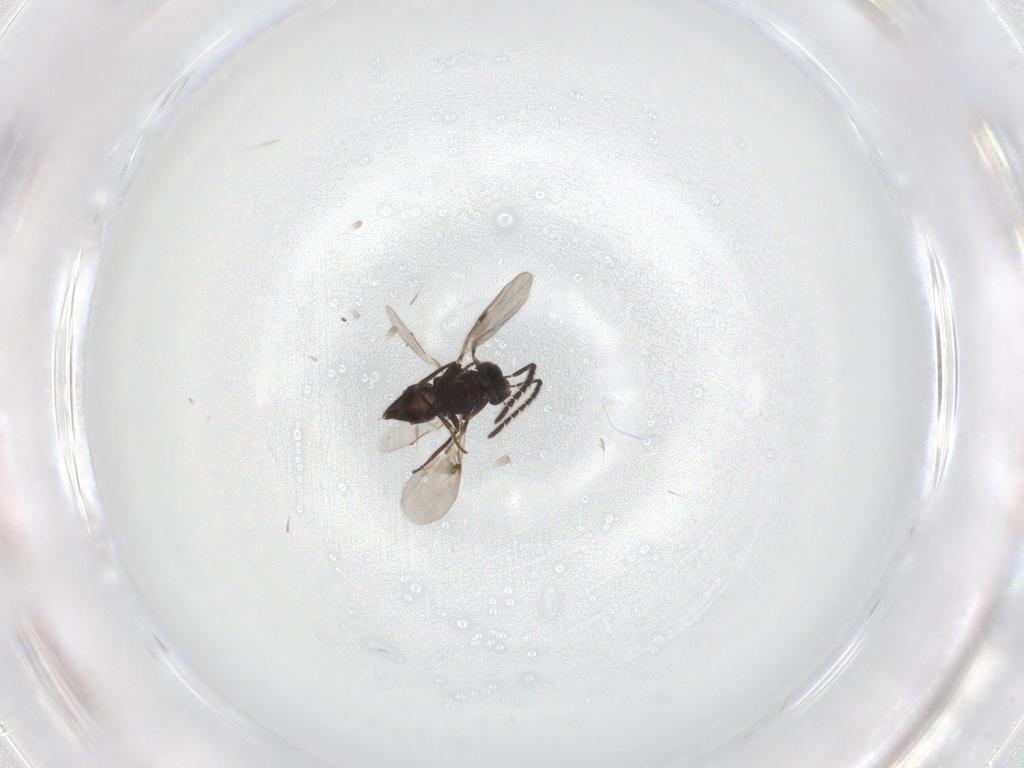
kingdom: Animalia
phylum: Arthropoda
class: Insecta
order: Hymenoptera
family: Encyrtidae
